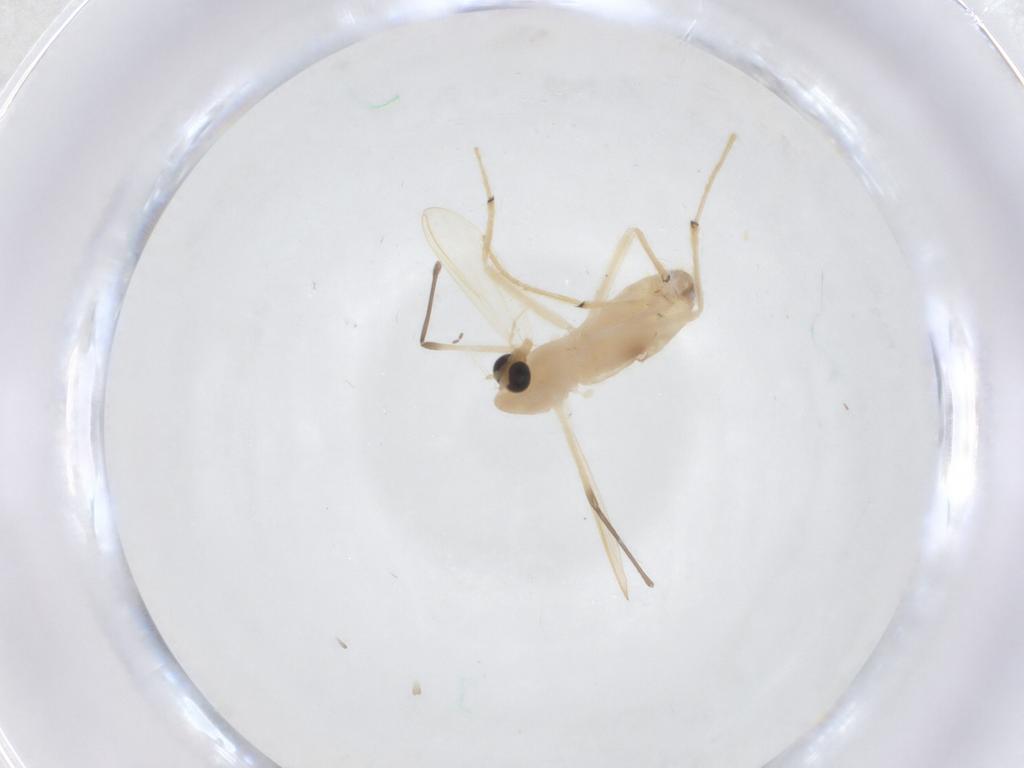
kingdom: Animalia
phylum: Arthropoda
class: Insecta
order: Diptera
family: Chironomidae
